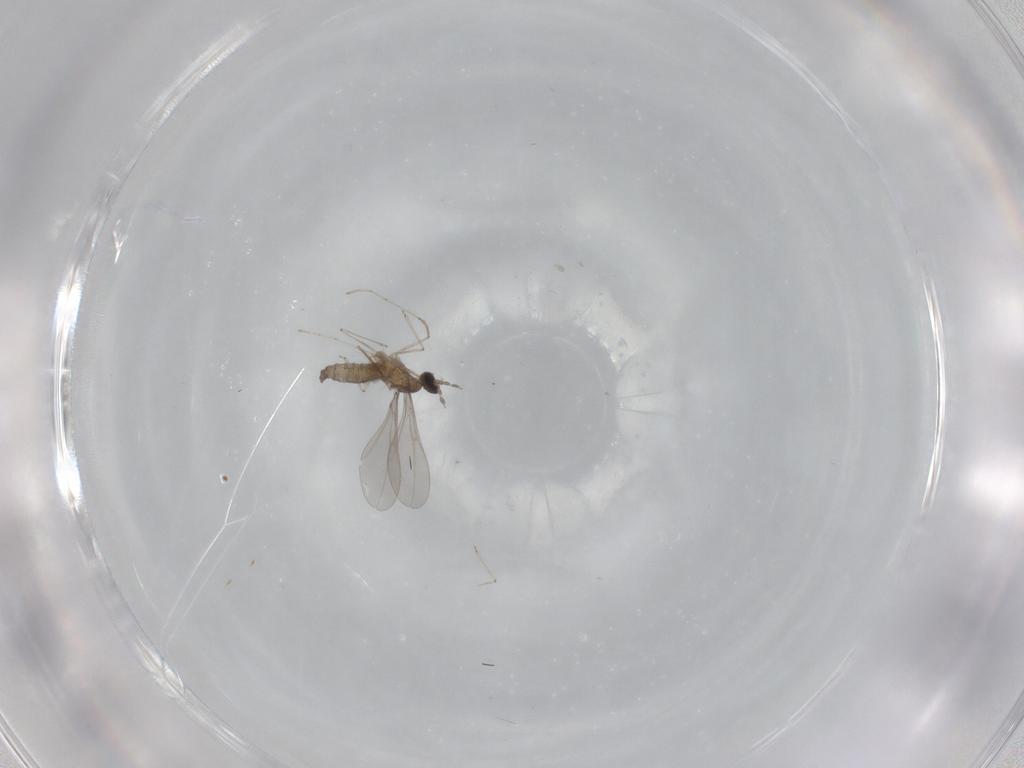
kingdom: Animalia
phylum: Arthropoda
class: Insecta
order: Diptera
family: Cecidomyiidae
